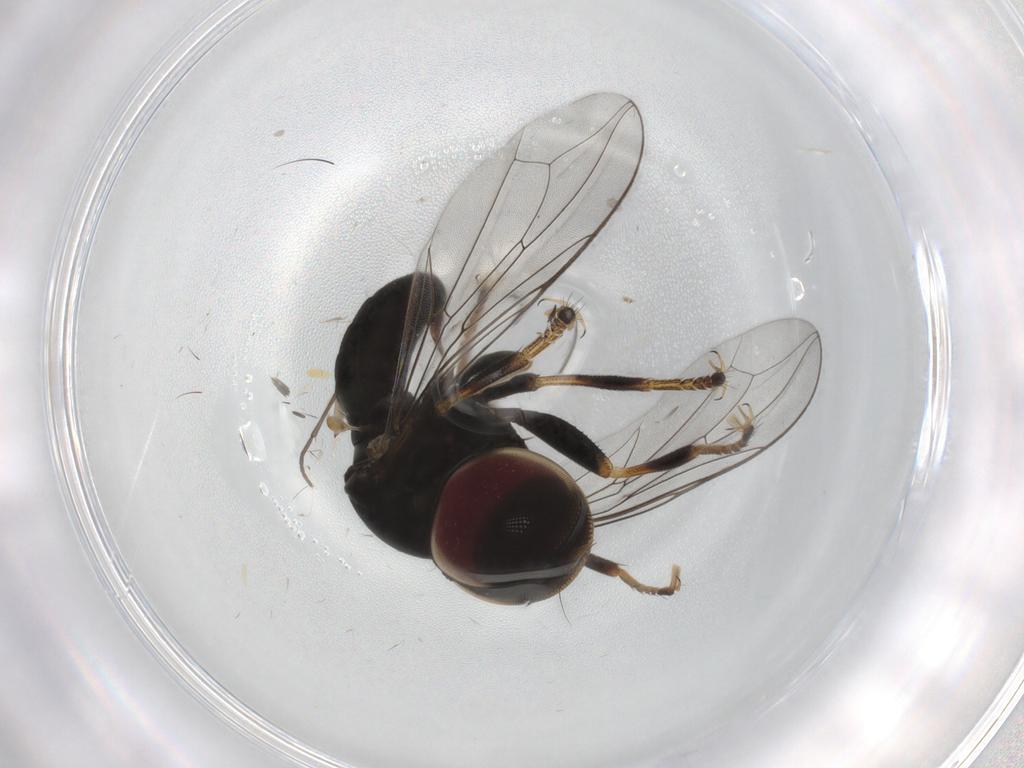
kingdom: Animalia
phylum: Arthropoda
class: Insecta
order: Diptera
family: Pipunculidae
